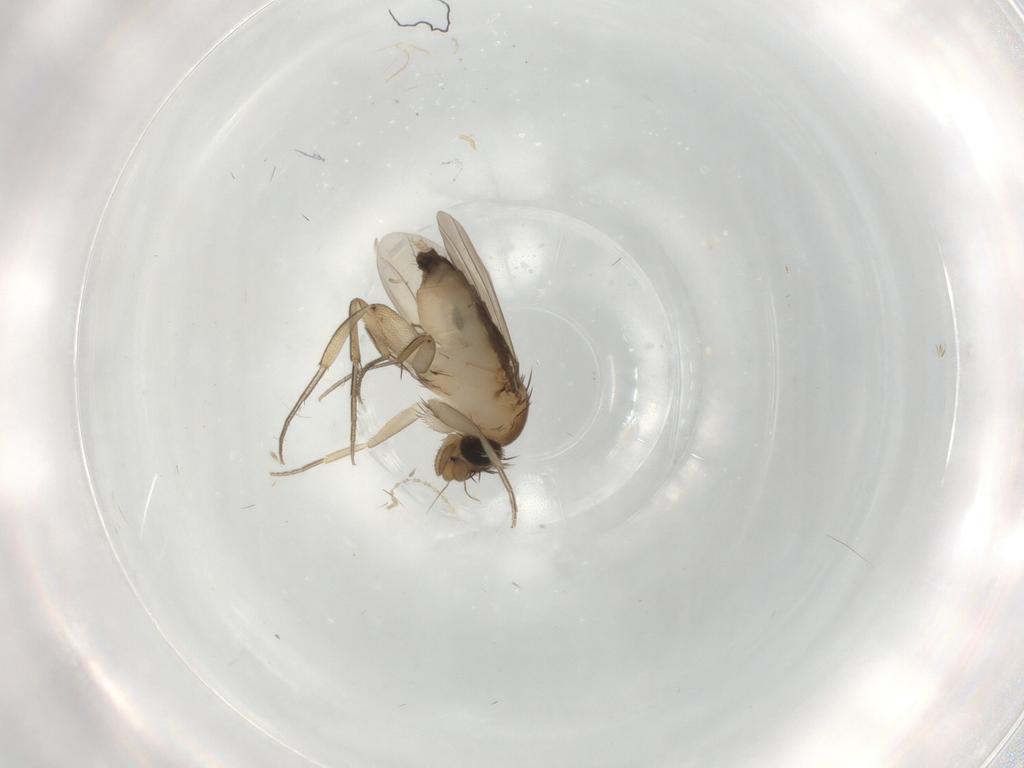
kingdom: Animalia
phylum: Arthropoda
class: Insecta
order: Diptera
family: Phoridae
